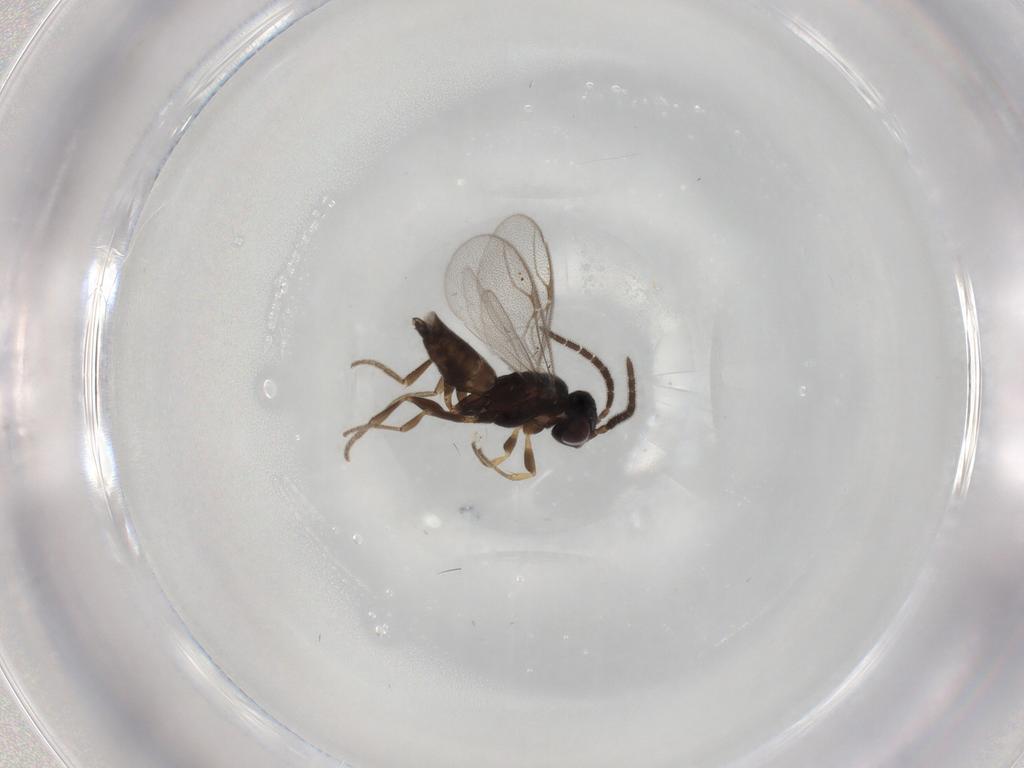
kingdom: Animalia
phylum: Arthropoda
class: Insecta
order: Hymenoptera
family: Dryinidae
